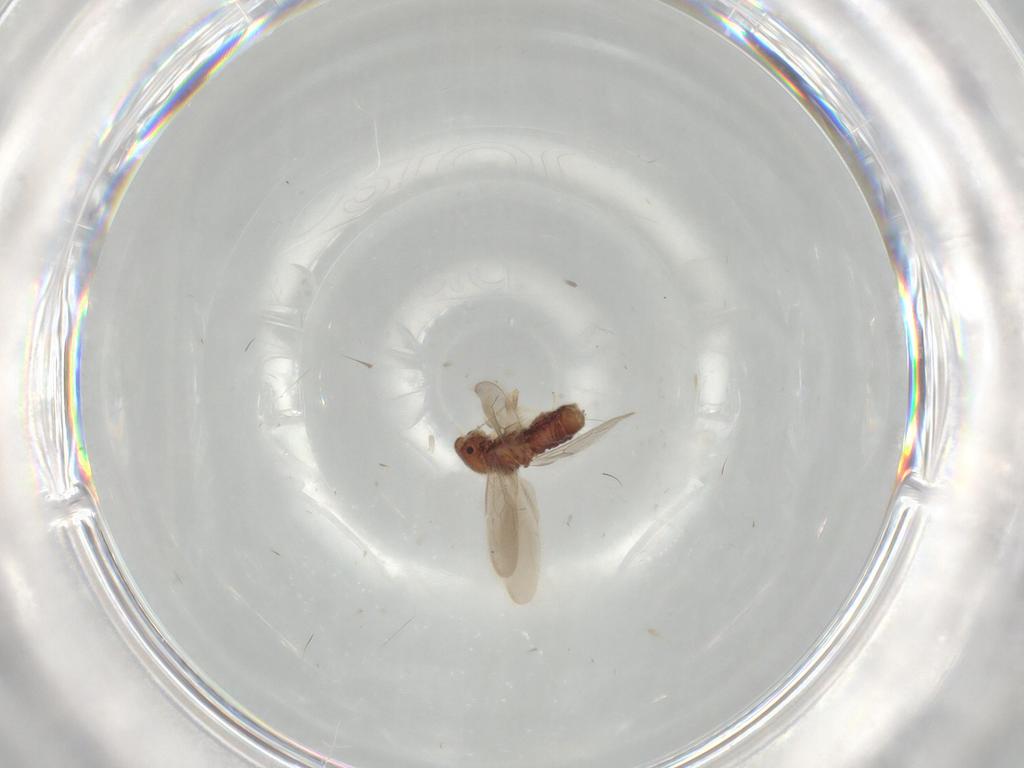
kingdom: Animalia
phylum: Arthropoda
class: Insecta
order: Psocodea
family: Archipsocidae
